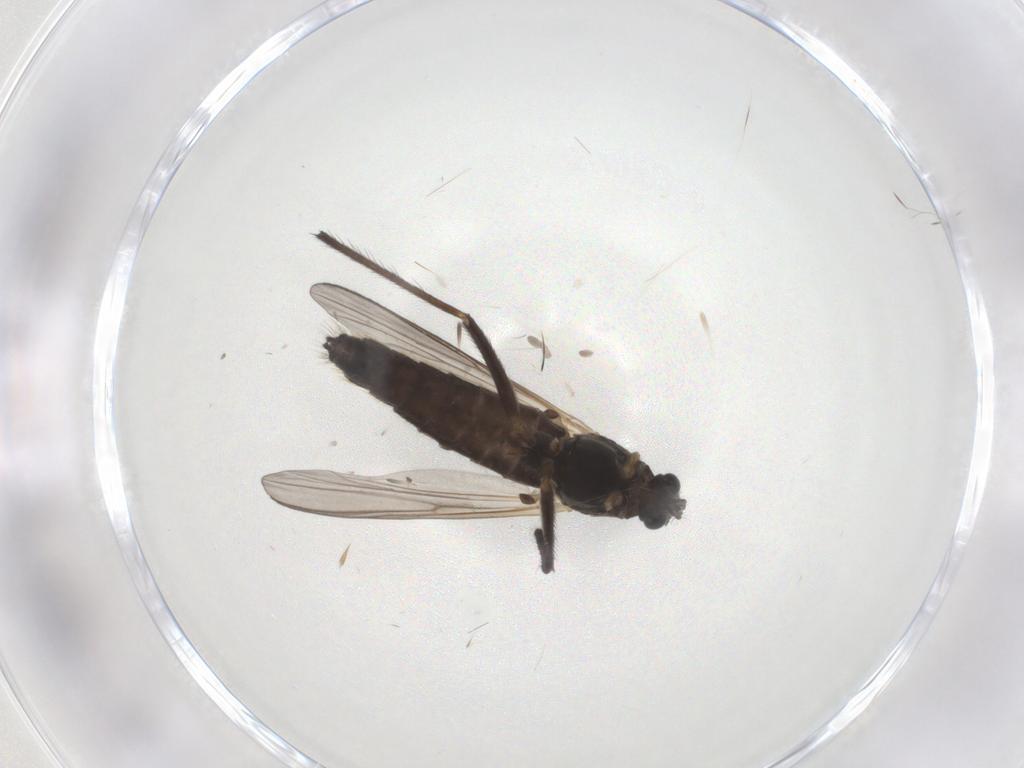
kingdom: Animalia
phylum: Arthropoda
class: Insecta
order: Diptera
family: Chironomidae
